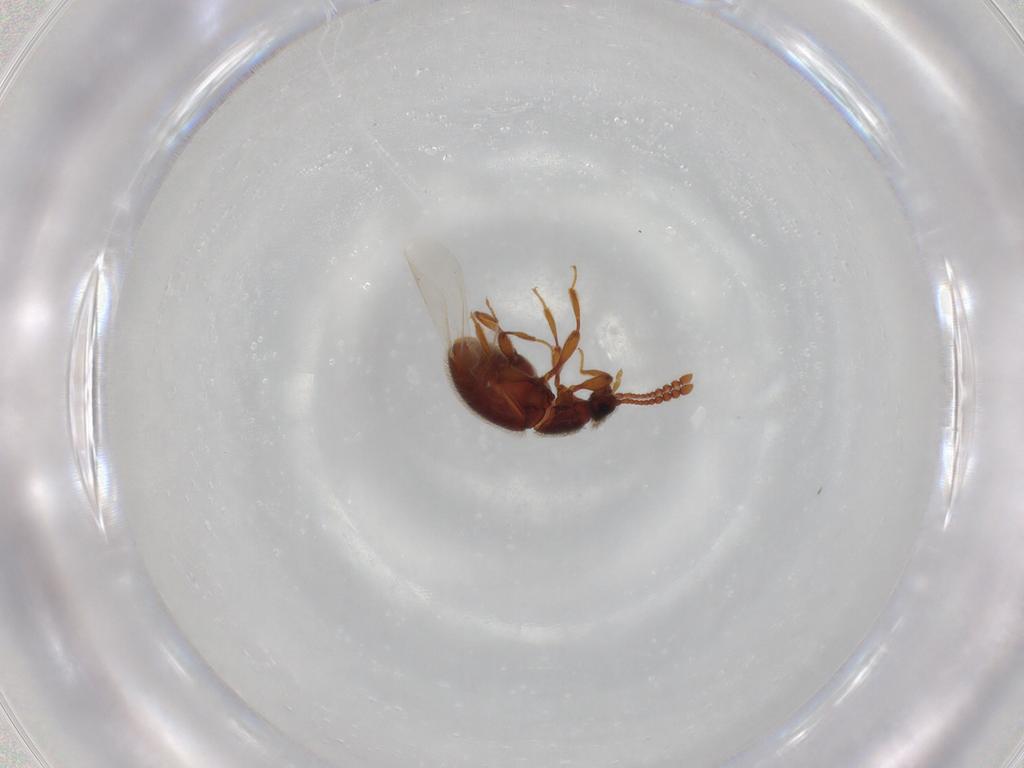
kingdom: Animalia
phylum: Arthropoda
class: Insecta
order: Coleoptera
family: Staphylinidae
